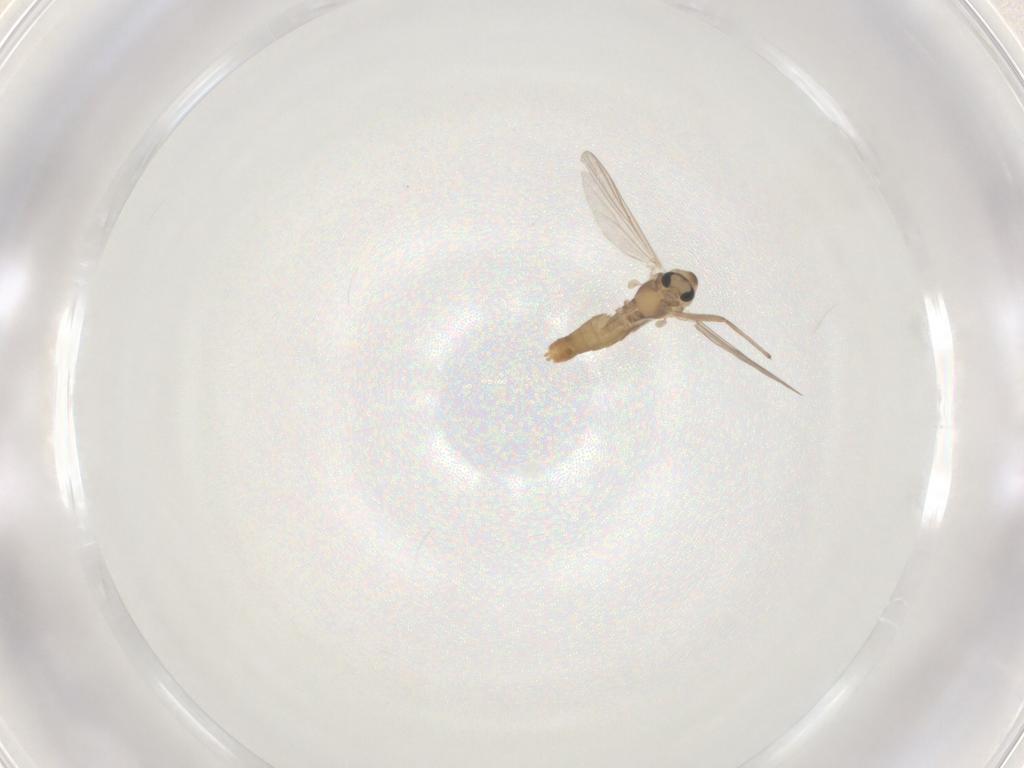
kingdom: Animalia
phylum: Arthropoda
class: Insecta
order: Diptera
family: Chironomidae
